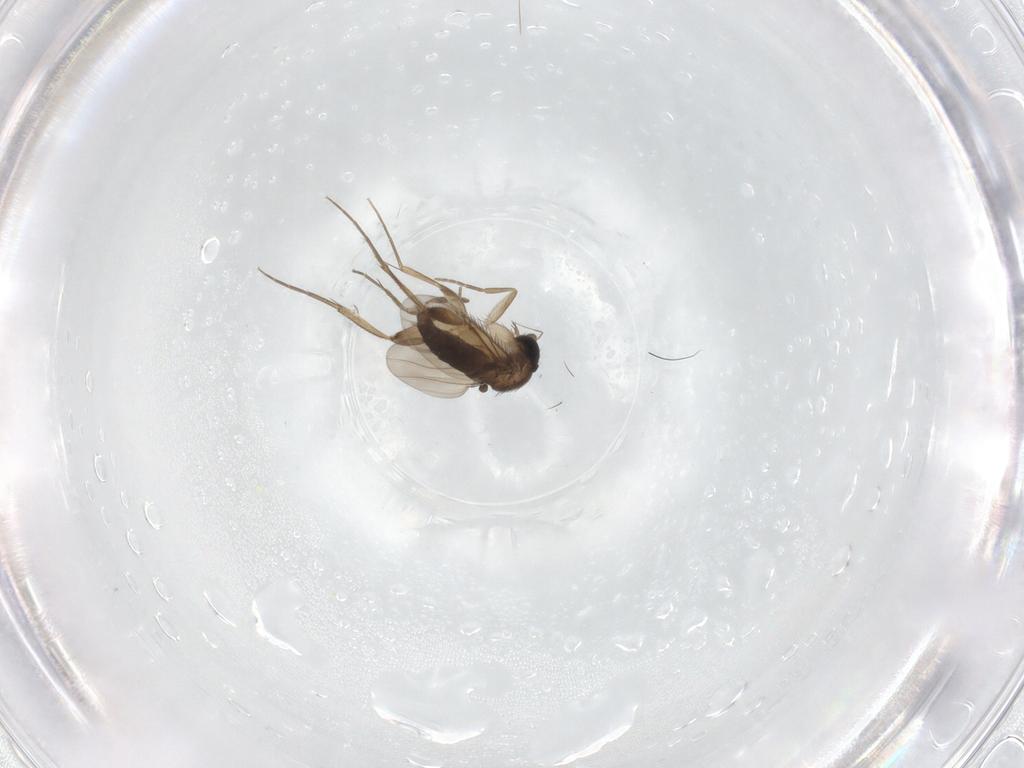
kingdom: Animalia
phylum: Arthropoda
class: Insecta
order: Diptera
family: Phoridae
